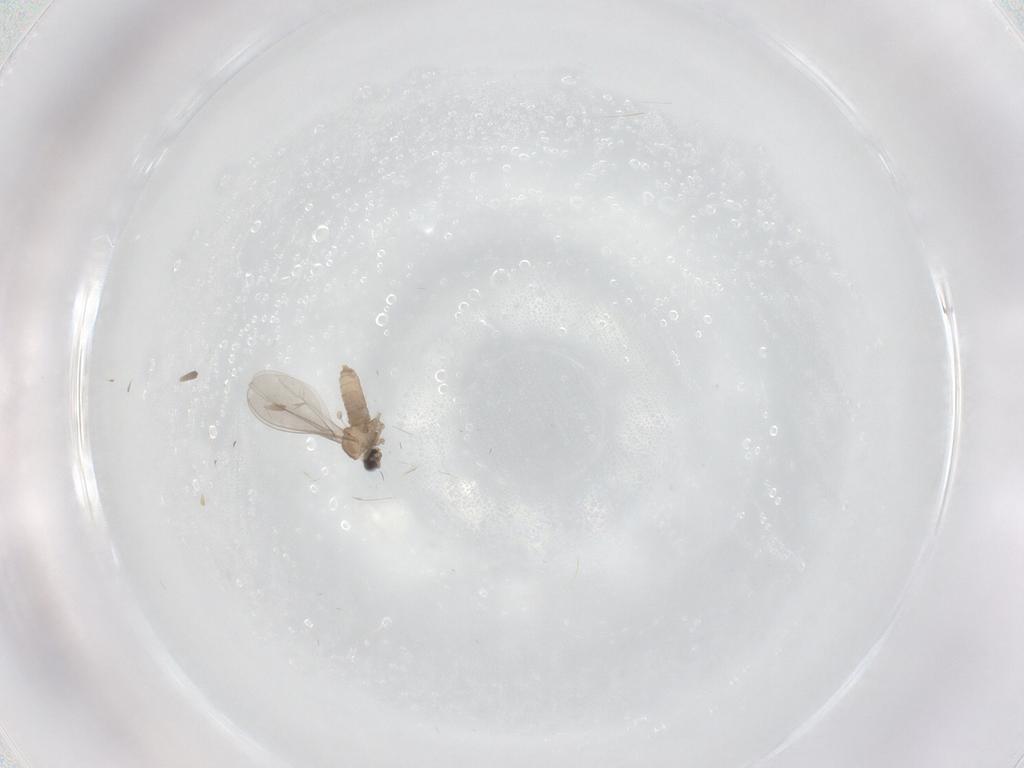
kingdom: Animalia
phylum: Arthropoda
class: Insecta
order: Diptera
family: Cecidomyiidae
